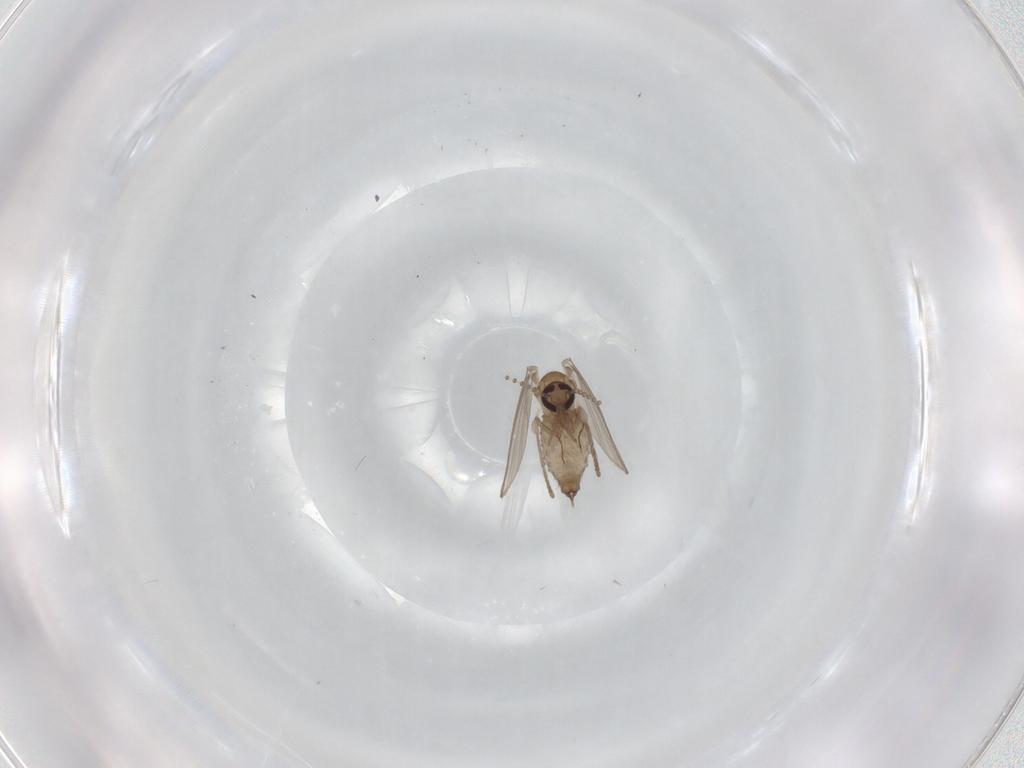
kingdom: Animalia
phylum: Arthropoda
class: Insecta
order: Diptera
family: Psychodidae
